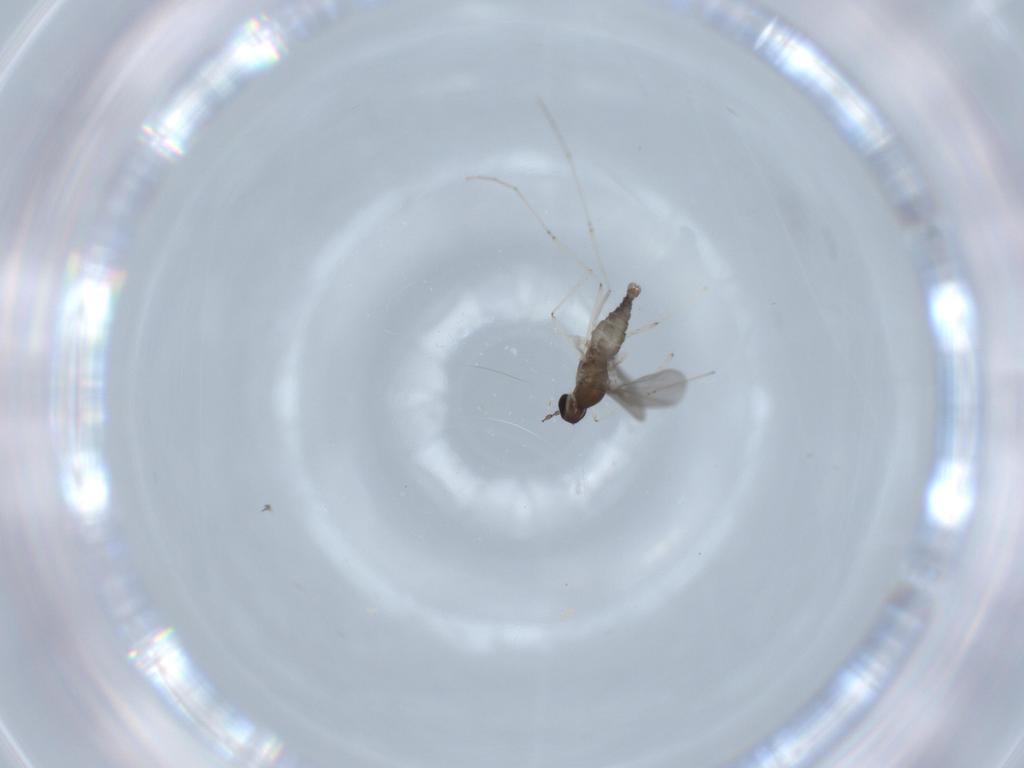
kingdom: Animalia
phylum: Arthropoda
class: Insecta
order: Diptera
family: Cecidomyiidae
